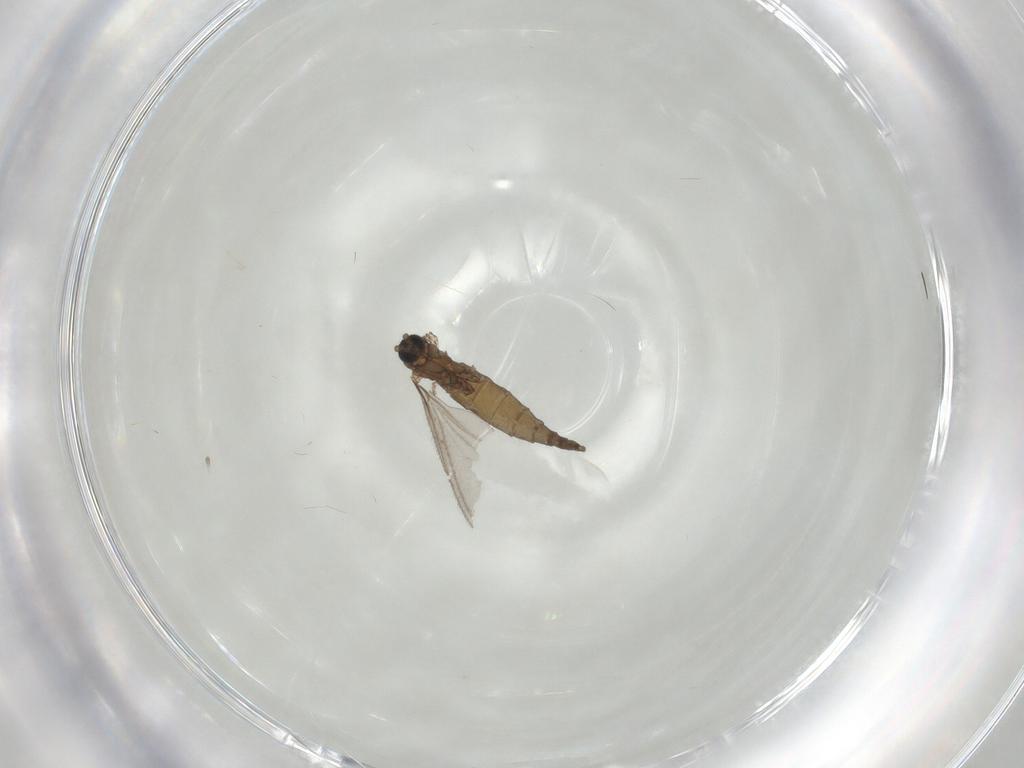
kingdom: Animalia
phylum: Arthropoda
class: Insecta
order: Diptera
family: Sciaridae
